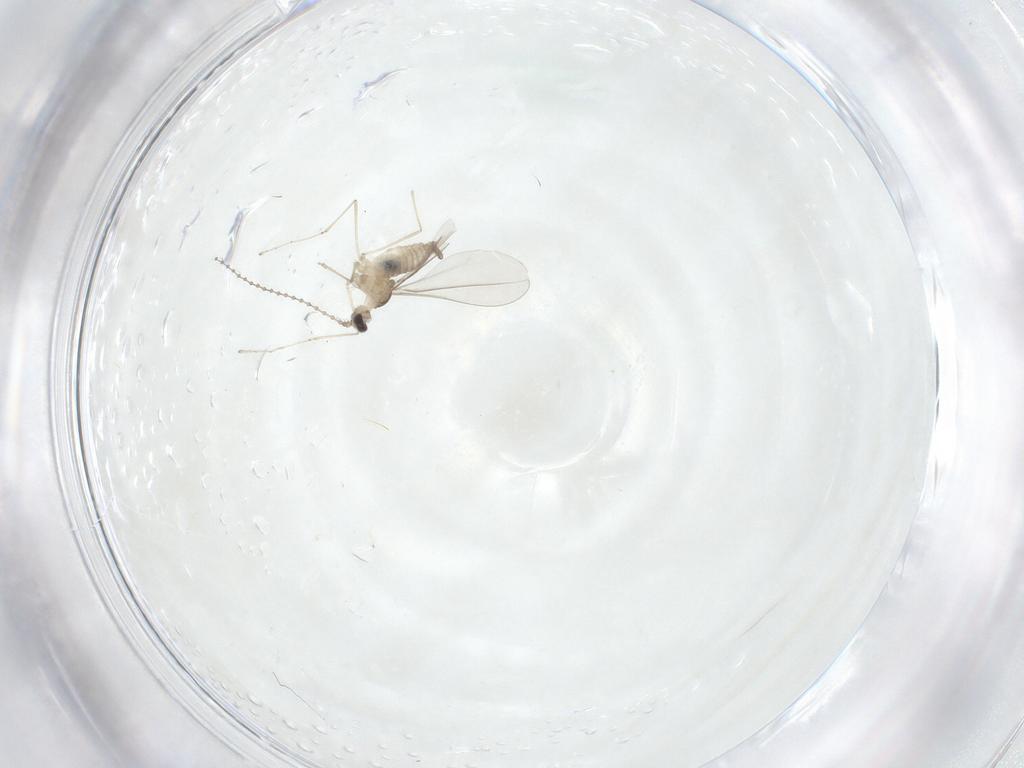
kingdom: Animalia
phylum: Arthropoda
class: Insecta
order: Diptera
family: Cecidomyiidae
